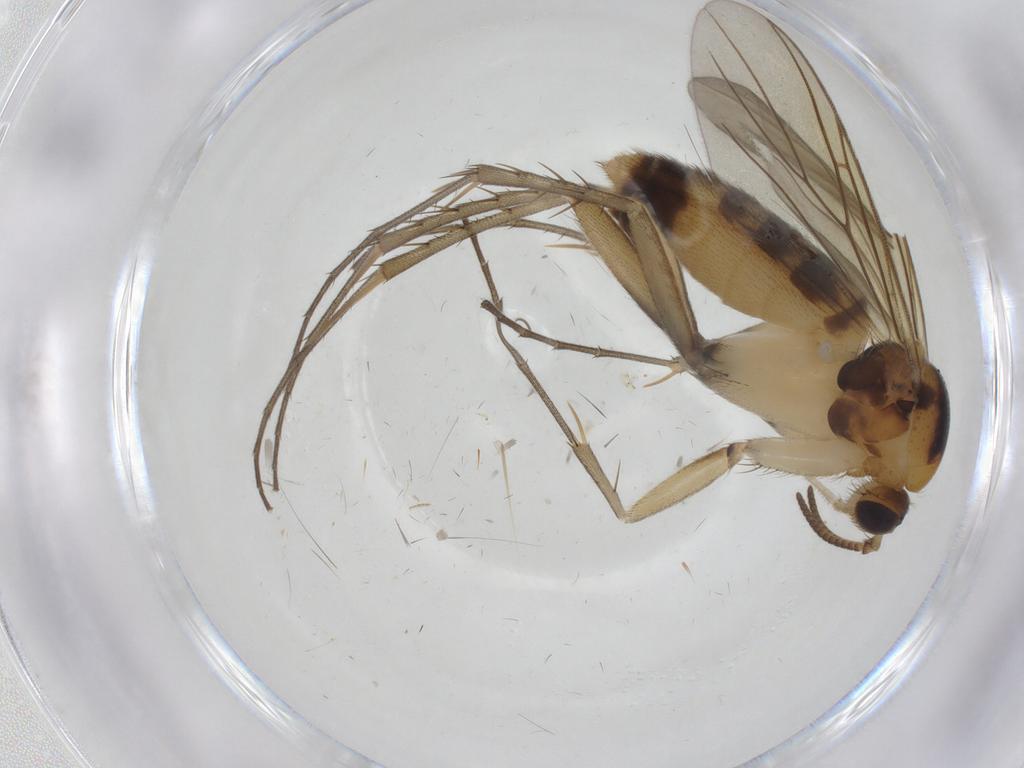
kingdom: Animalia
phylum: Arthropoda
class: Insecta
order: Diptera
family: Mycetophilidae
